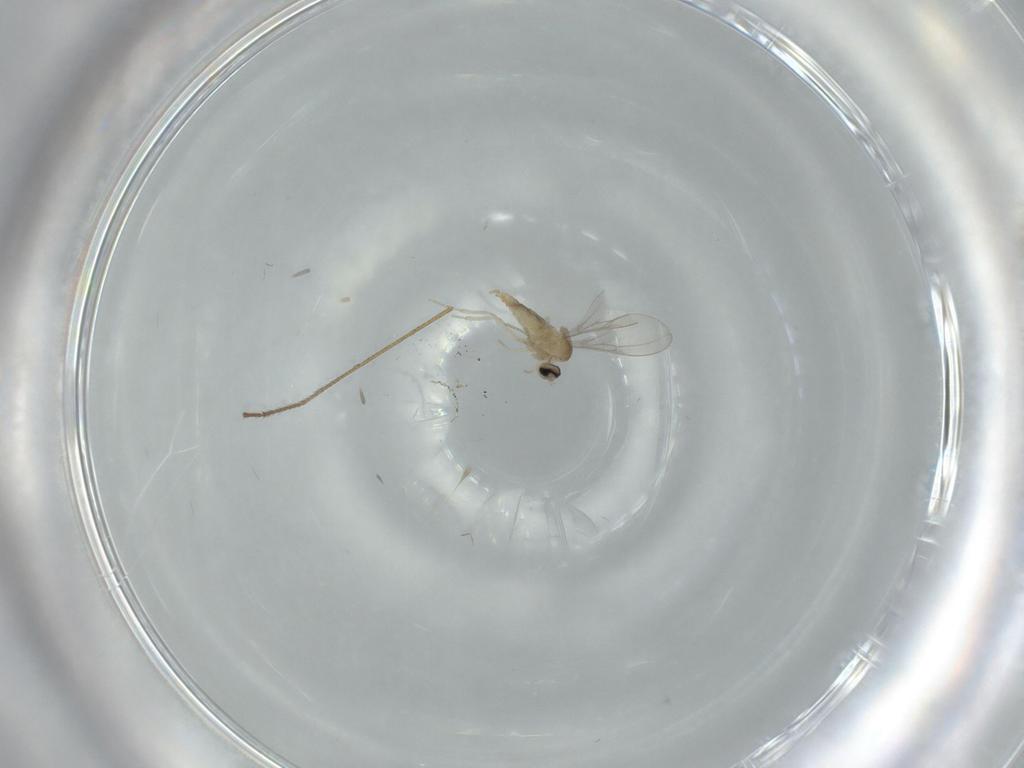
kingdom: Animalia
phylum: Arthropoda
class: Insecta
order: Diptera
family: Cecidomyiidae
